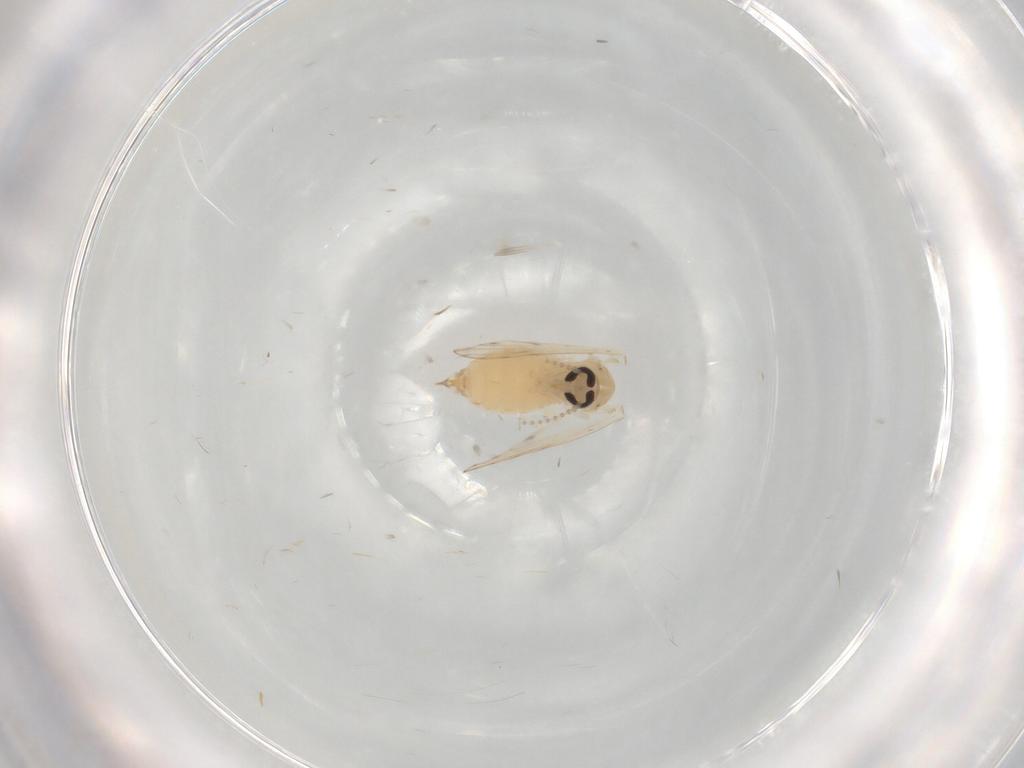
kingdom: Animalia
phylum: Arthropoda
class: Insecta
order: Diptera
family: Psychodidae
